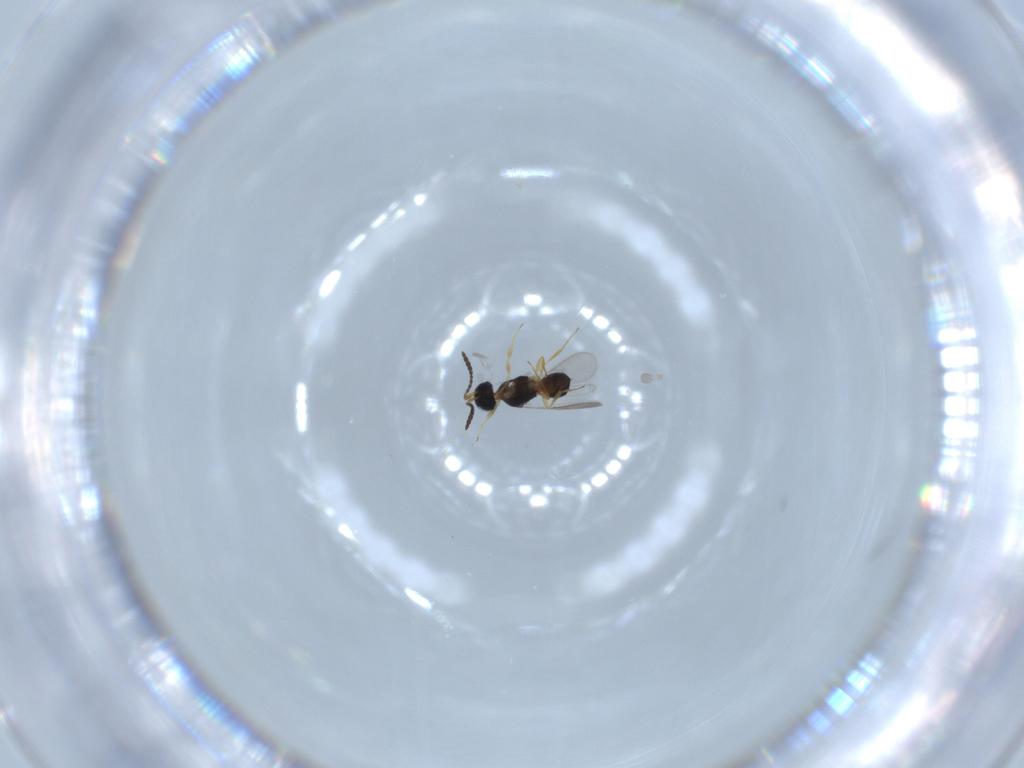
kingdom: Animalia
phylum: Arthropoda
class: Insecta
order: Hymenoptera
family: Scelionidae
